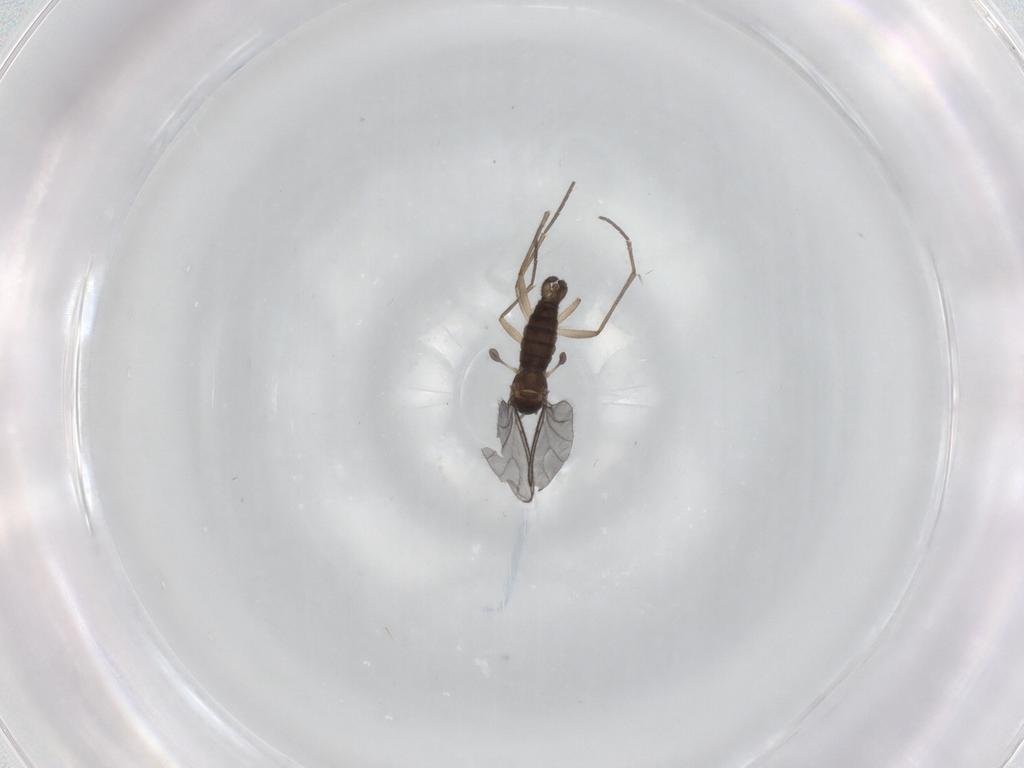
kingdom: Animalia
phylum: Arthropoda
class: Insecta
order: Diptera
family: Sciaridae
